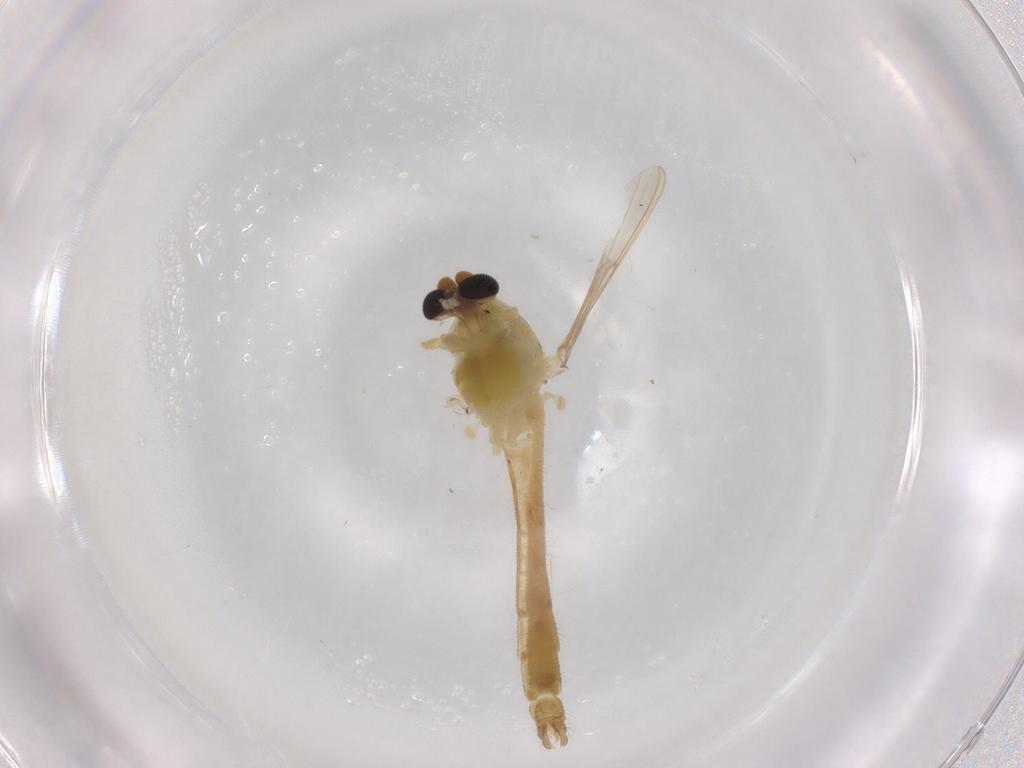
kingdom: Animalia
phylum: Arthropoda
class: Insecta
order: Diptera
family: Chironomidae
